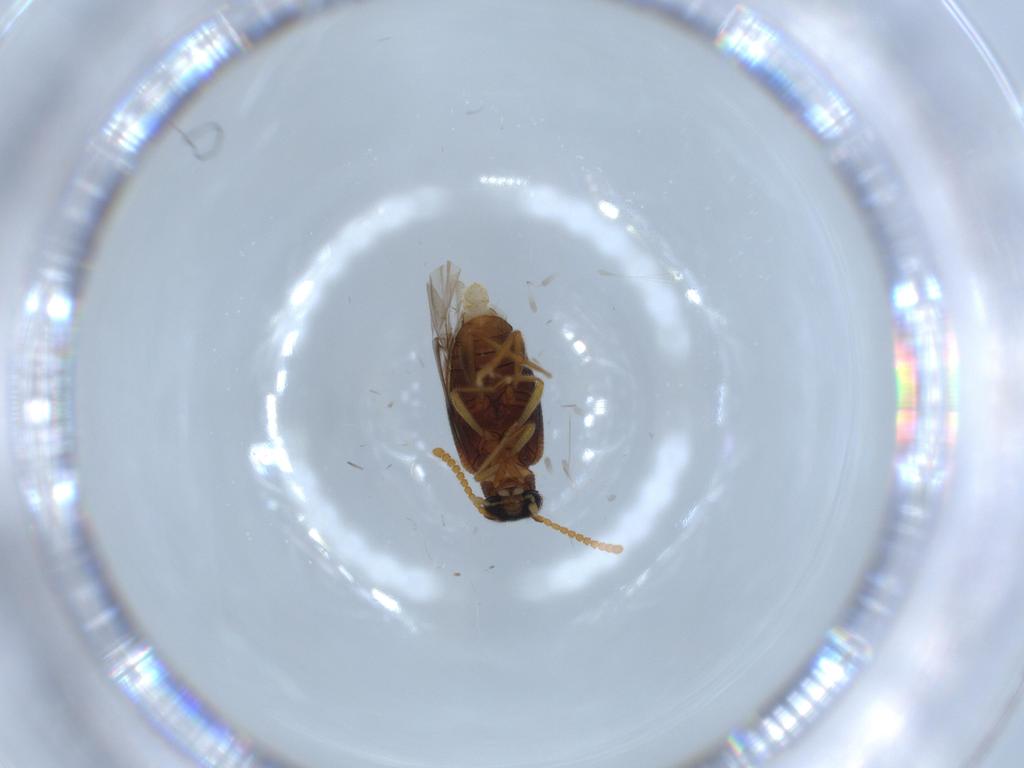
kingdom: Animalia
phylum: Arthropoda
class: Insecta
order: Coleoptera
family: Aderidae
